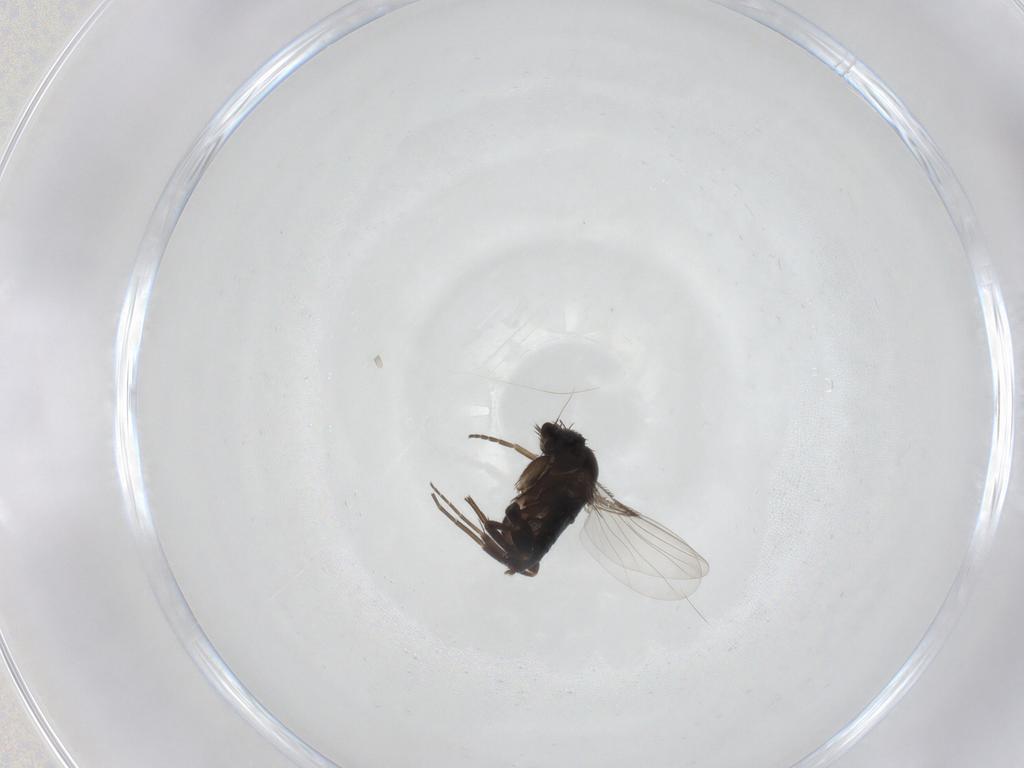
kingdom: Animalia
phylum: Arthropoda
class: Insecta
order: Diptera
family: Phoridae
